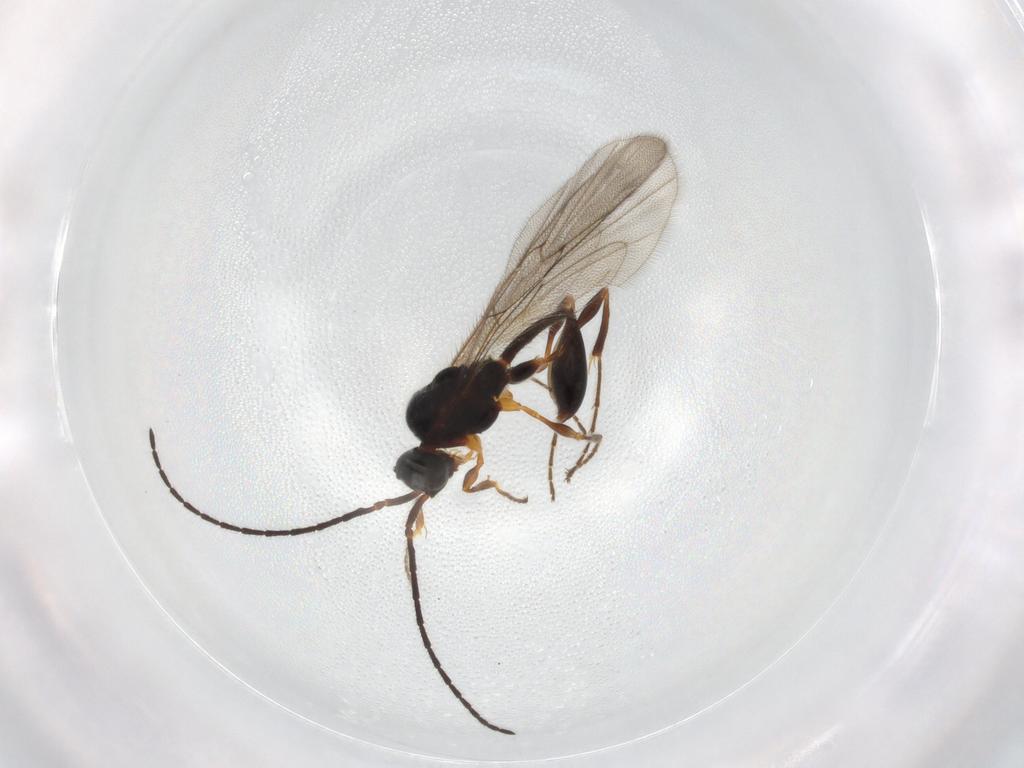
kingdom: Animalia
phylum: Arthropoda
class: Insecta
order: Hymenoptera
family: Diapriidae
